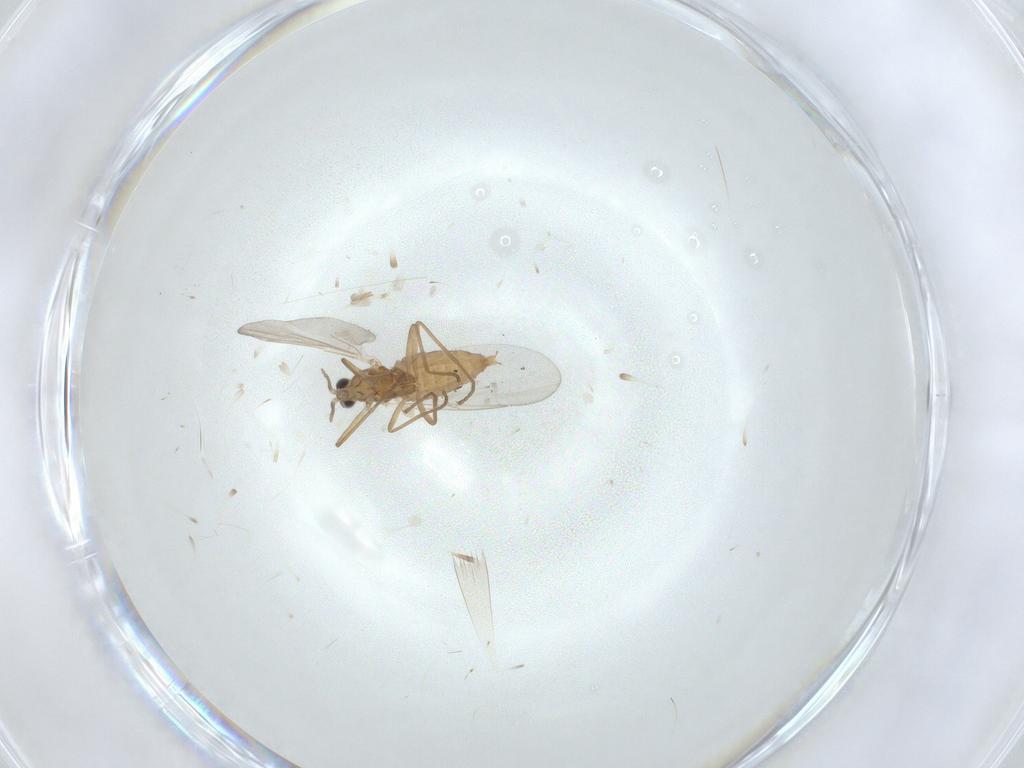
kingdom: Animalia
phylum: Arthropoda
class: Insecta
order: Diptera
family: Cecidomyiidae
